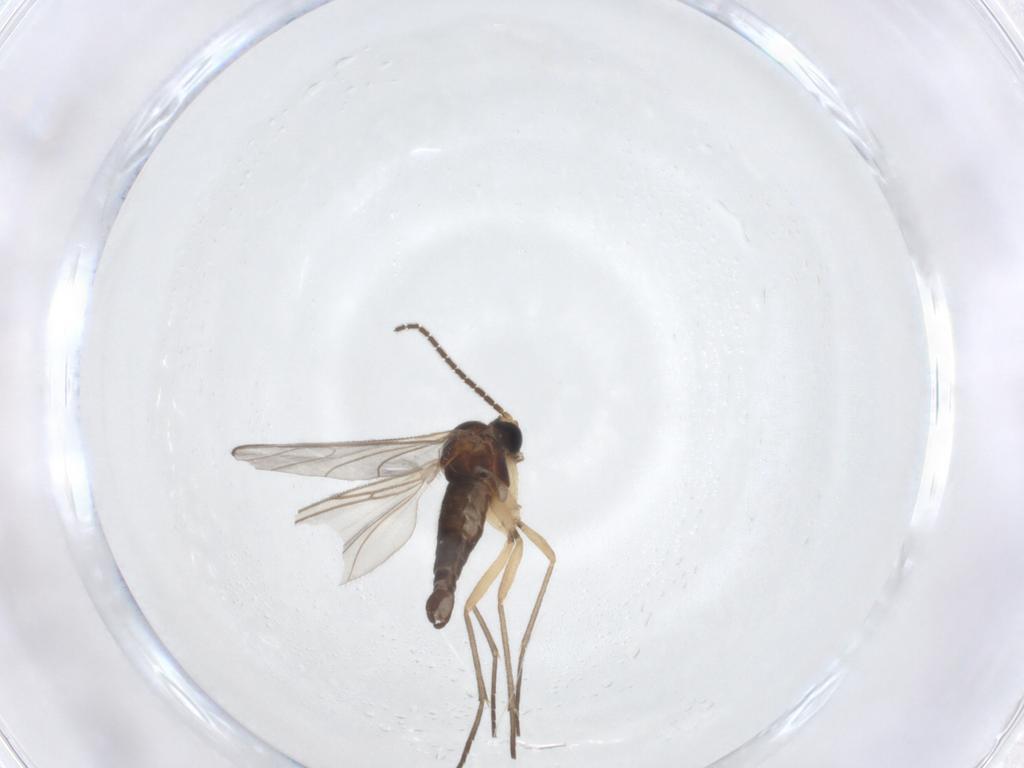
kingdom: Animalia
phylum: Arthropoda
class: Insecta
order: Diptera
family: Sciaridae
